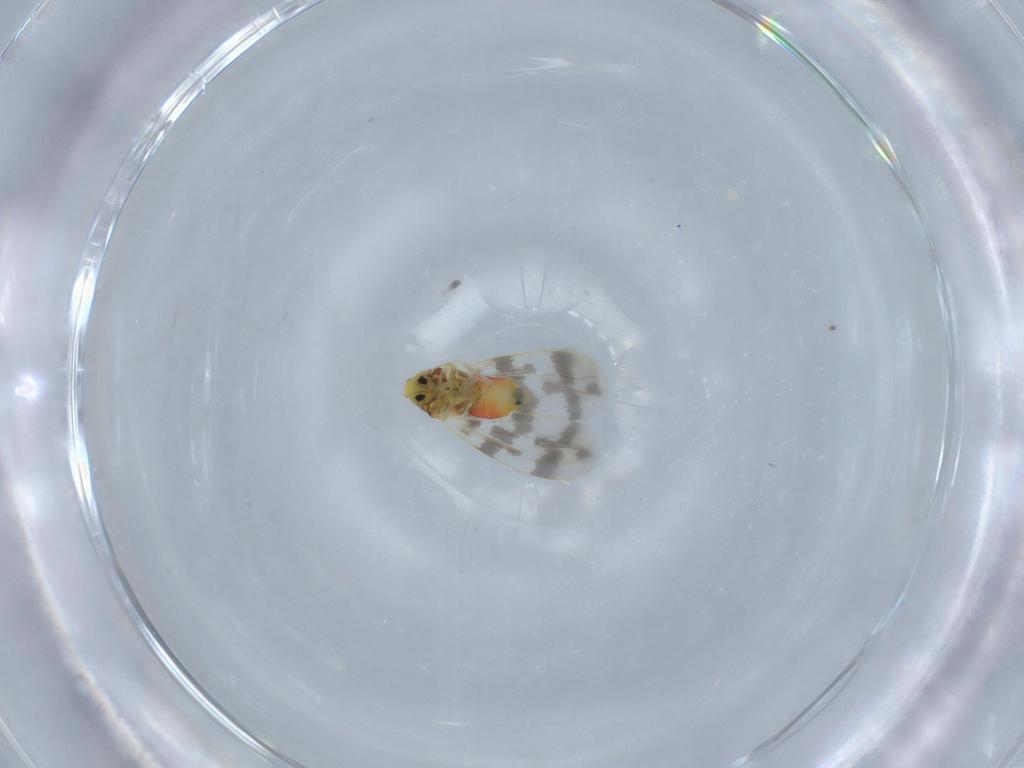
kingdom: Animalia
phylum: Arthropoda
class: Insecta
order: Hemiptera
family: Aleyrodidae
